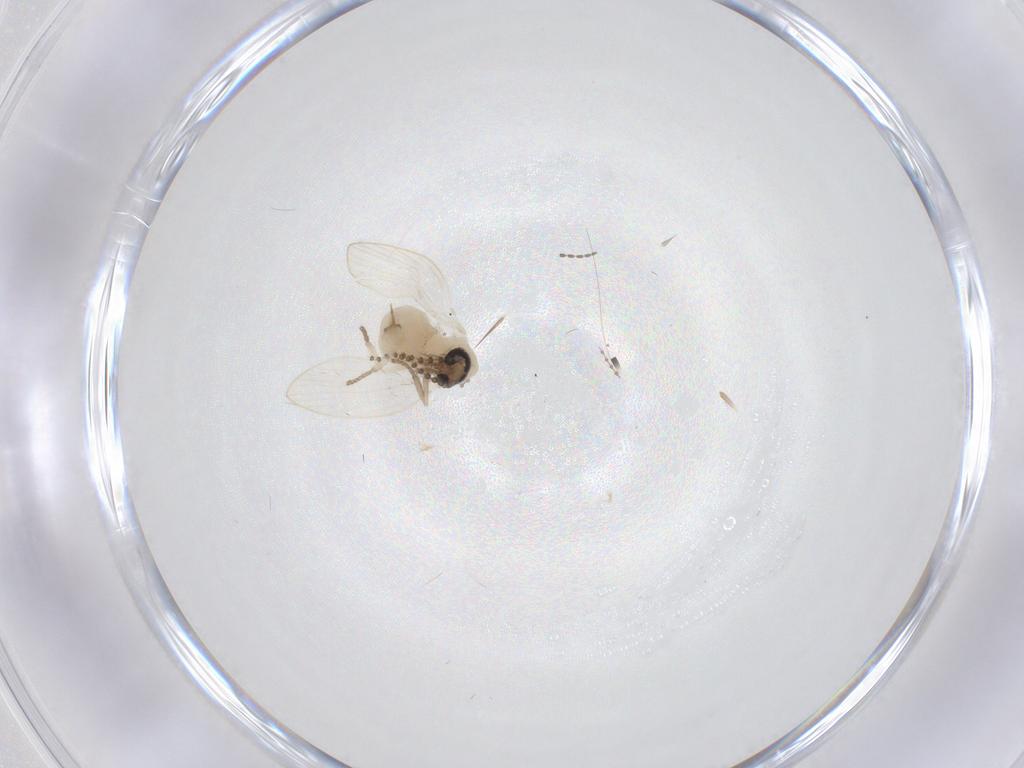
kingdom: Animalia
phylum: Arthropoda
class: Insecta
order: Diptera
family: Psychodidae
